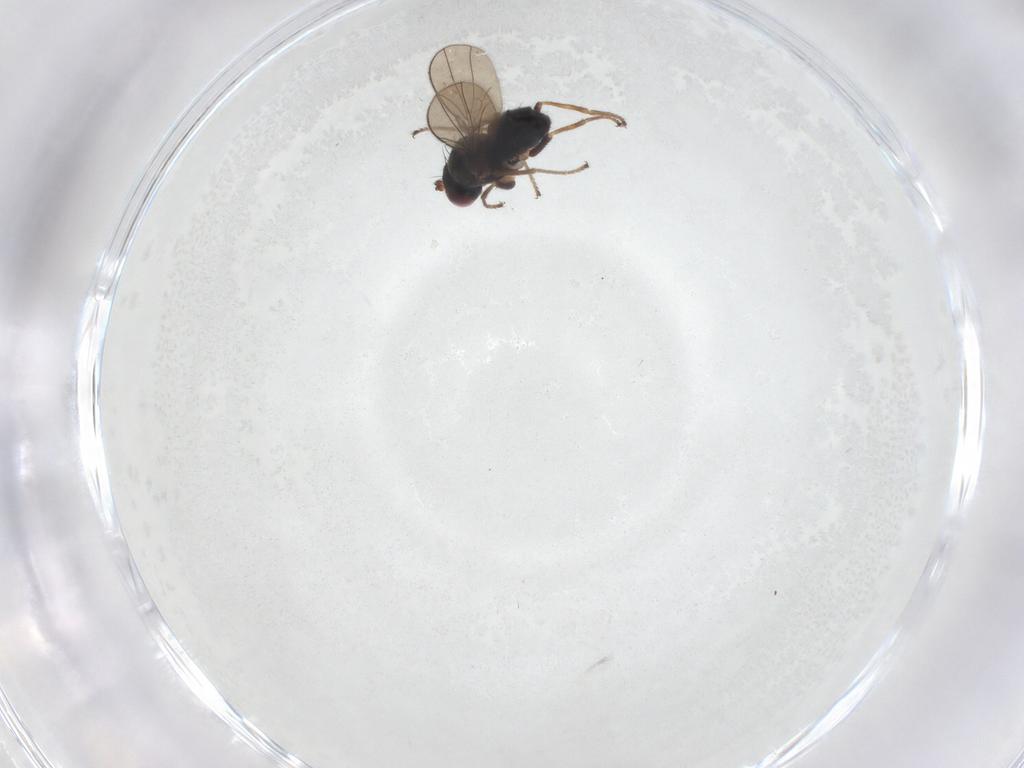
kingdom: Animalia
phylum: Arthropoda
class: Insecta
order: Diptera
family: Ephydridae
